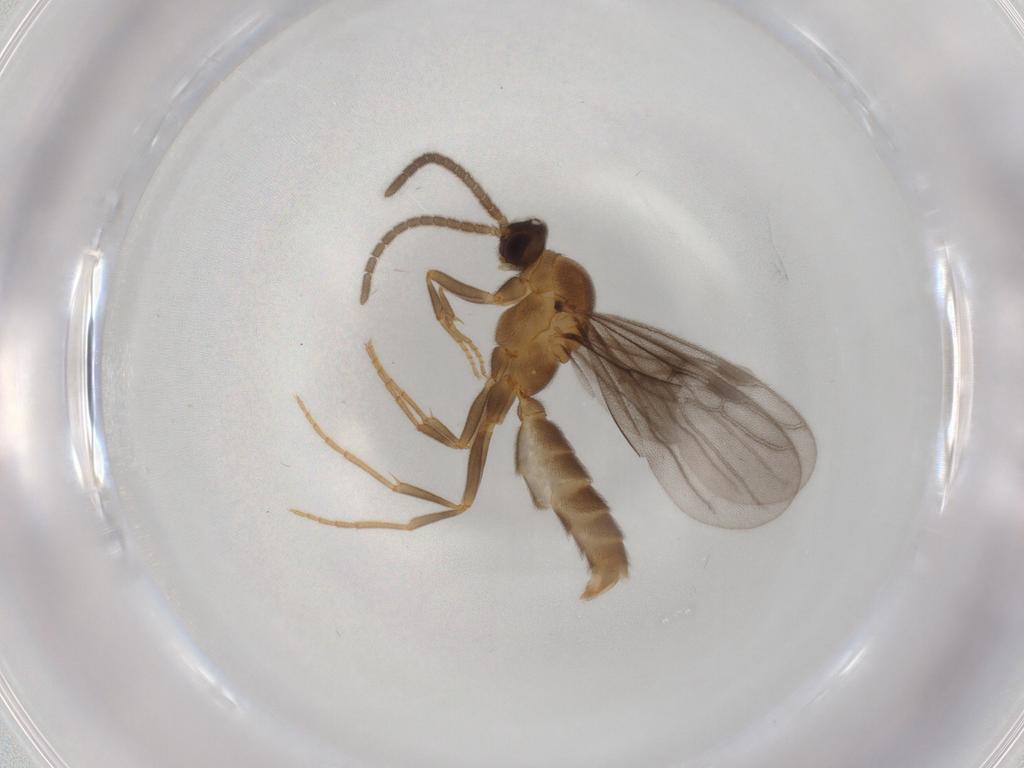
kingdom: Animalia
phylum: Arthropoda
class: Insecta
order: Hymenoptera
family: Formicidae
